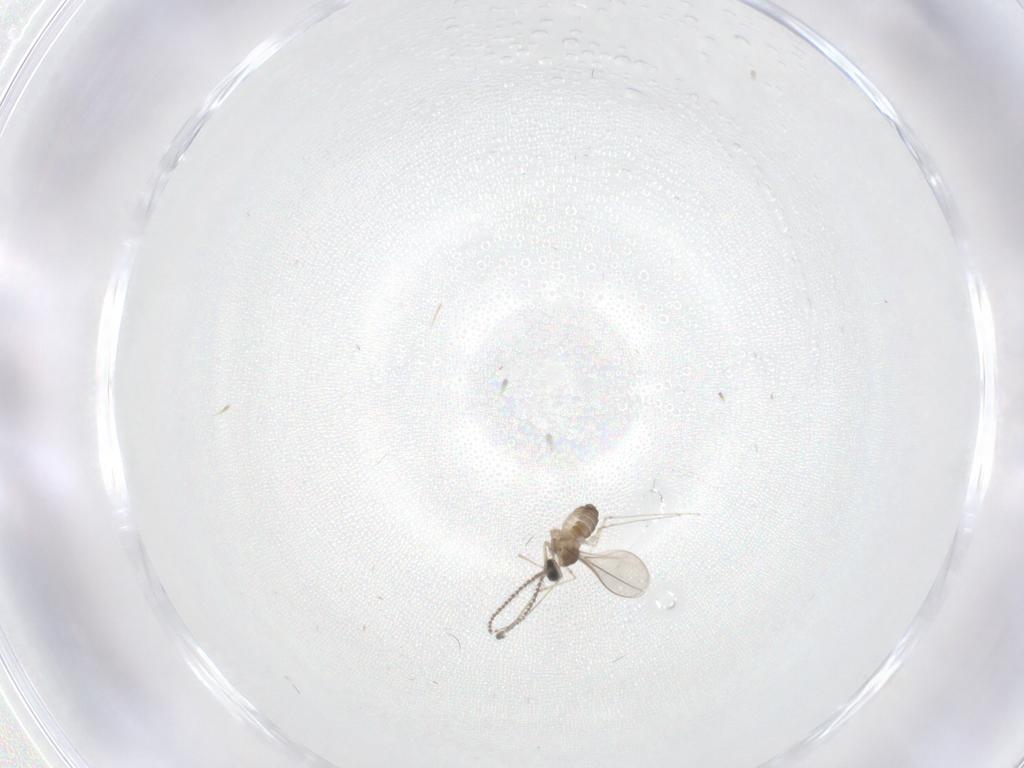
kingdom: Animalia
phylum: Arthropoda
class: Insecta
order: Diptera
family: Cecidomyiidae
